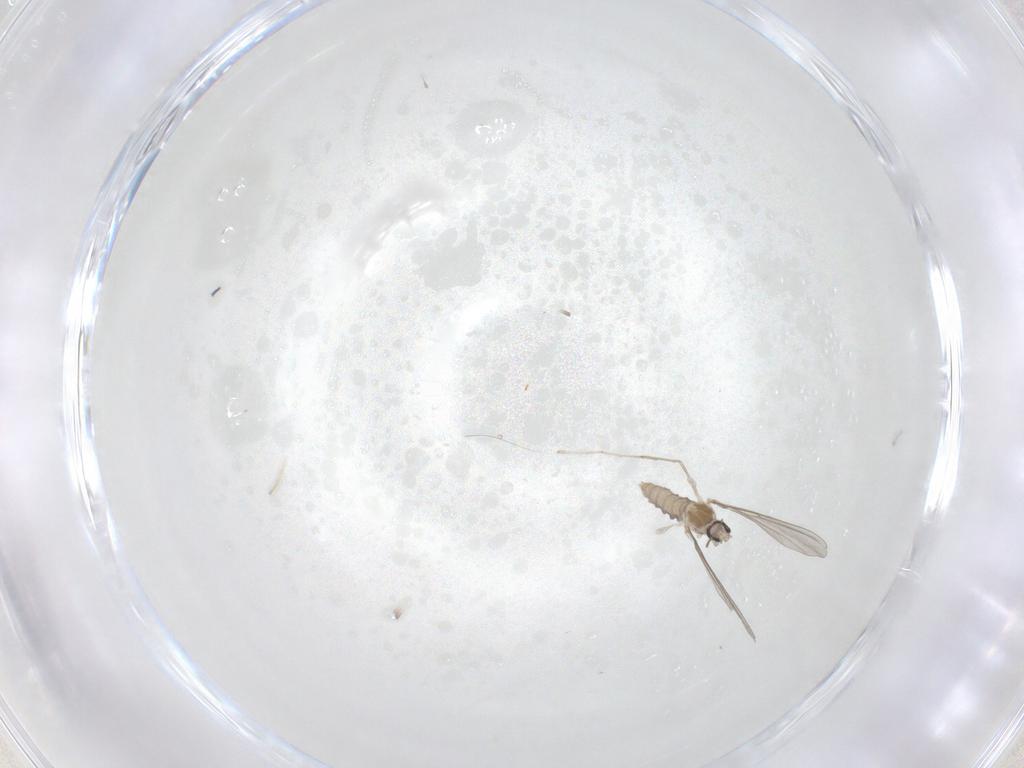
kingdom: Animalia
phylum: Arthropoda
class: Insecta
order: Diptera
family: Cecidomyiidae
